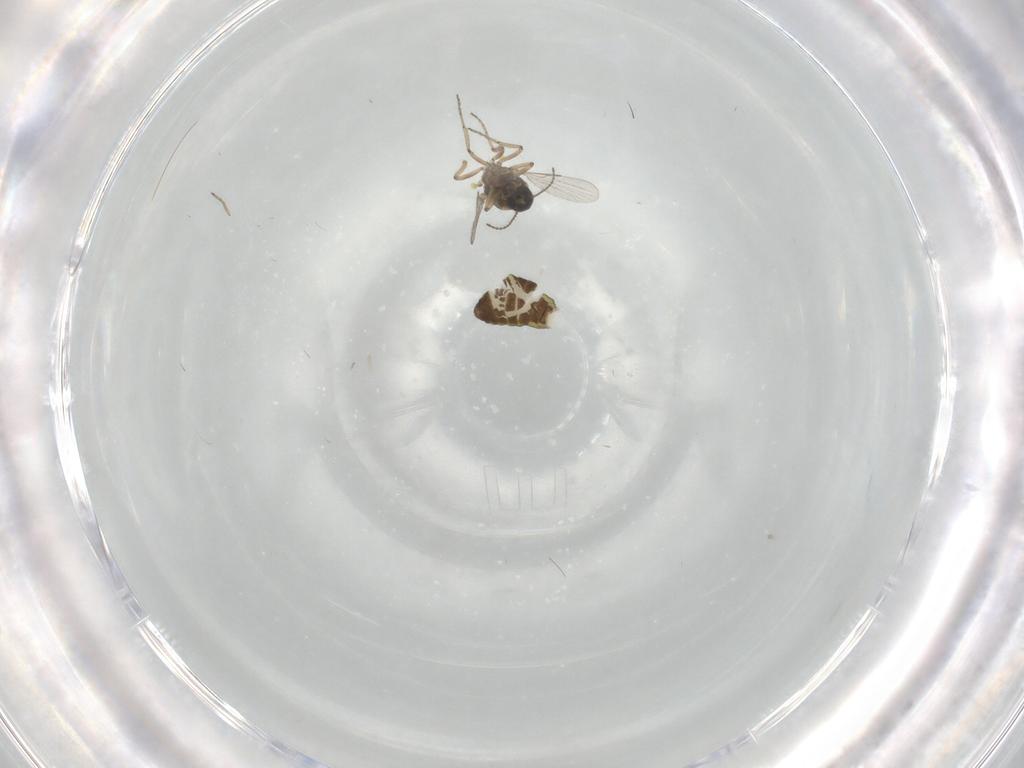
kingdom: Animalia
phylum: Arthropoda
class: Insecta
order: Diptera
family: Ceratopogonidae
